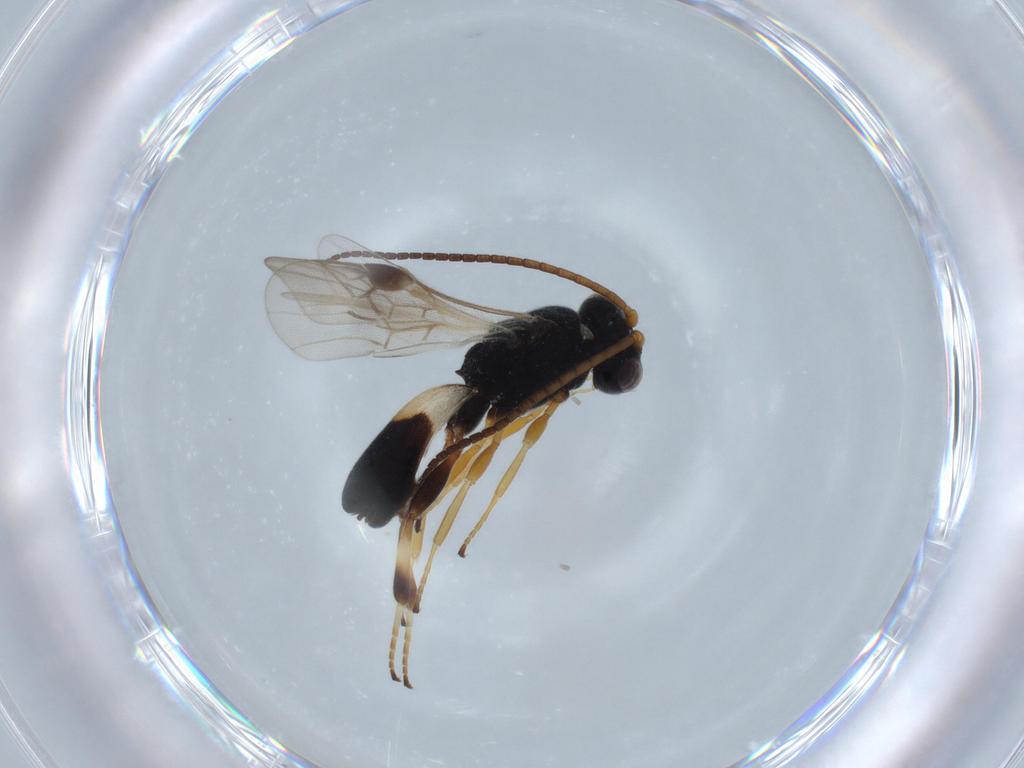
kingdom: Animalia
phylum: Arthropoda
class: Insecta
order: Hymenoptera
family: Braconidae
